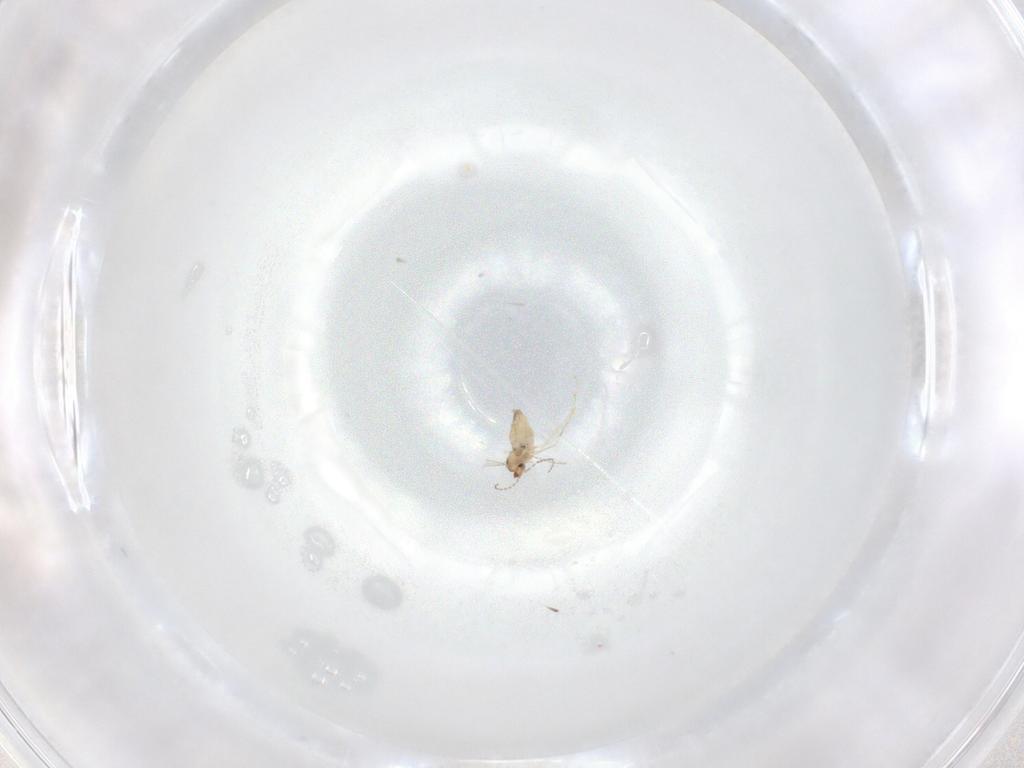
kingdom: Animalia
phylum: Arthropoda
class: Insecta
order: Diptera
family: Cecidomyiidae
